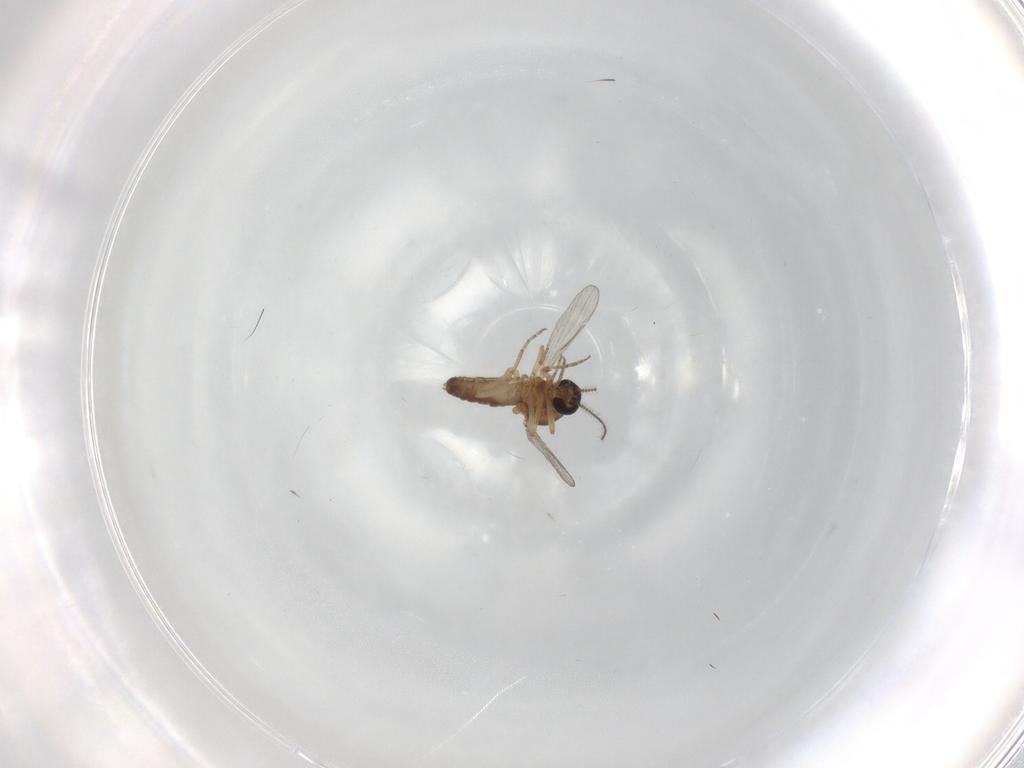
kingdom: Animalia
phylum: Arthropoda
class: Insecta
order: Diptera
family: Ceratopogonidae
